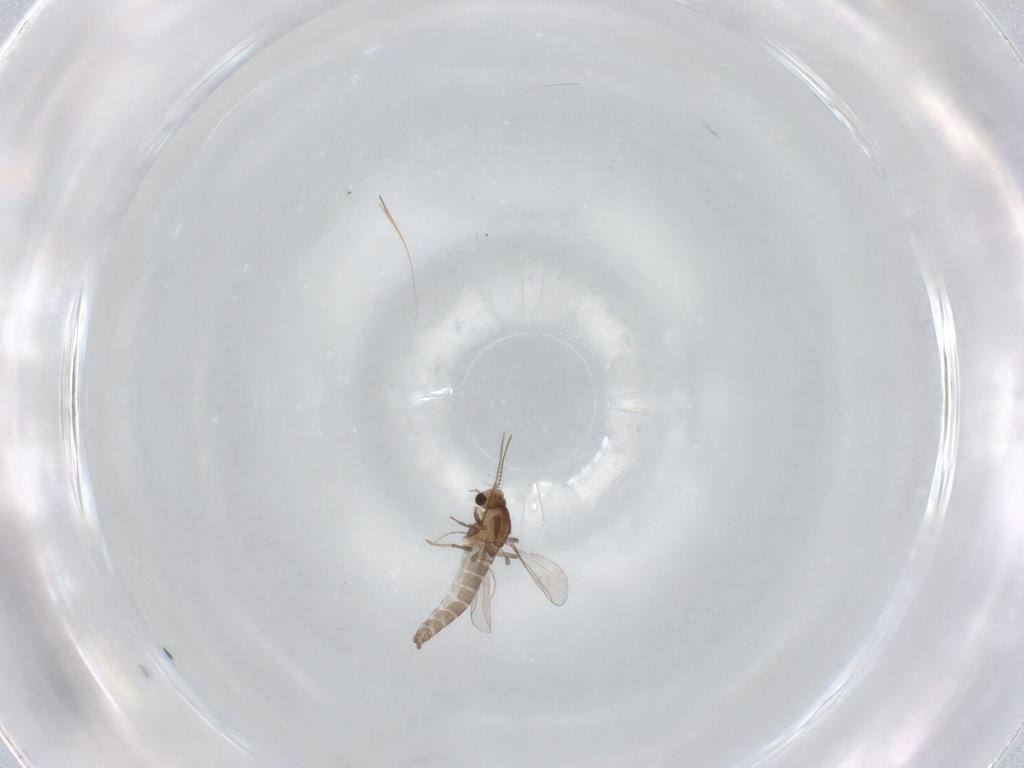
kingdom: Animalia
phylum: Arthropoda
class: Insecta
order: Diptera
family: Chironomidae
